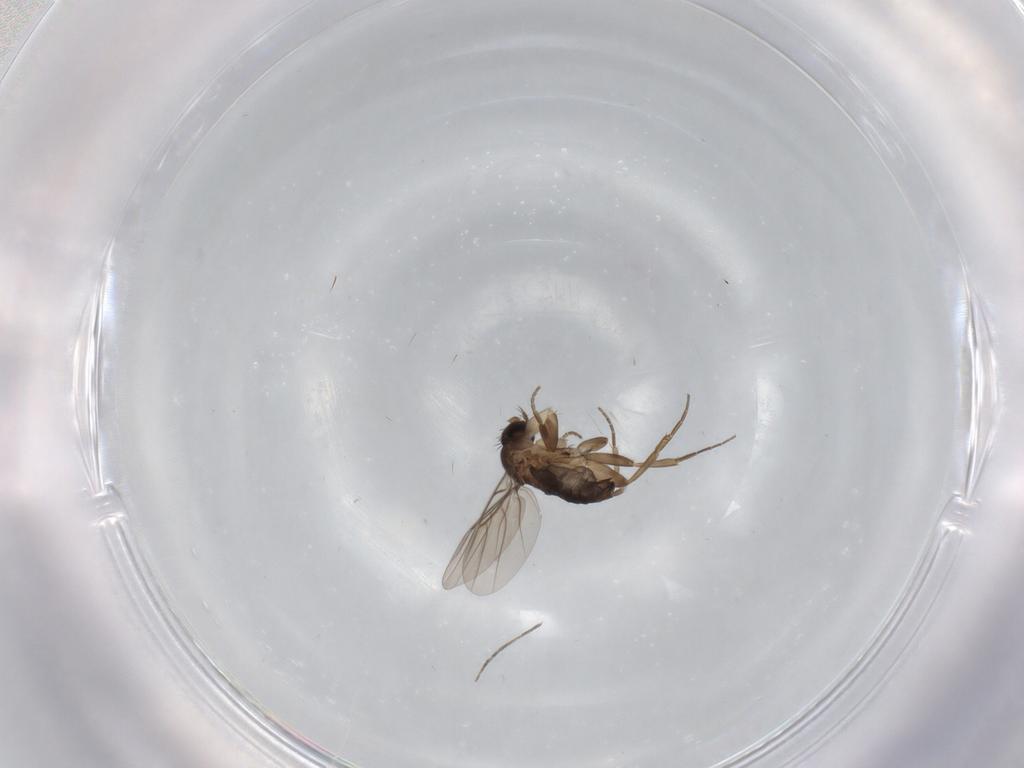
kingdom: Animalia
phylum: Arthropoda
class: Insecta
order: Diptera
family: Phoridae
